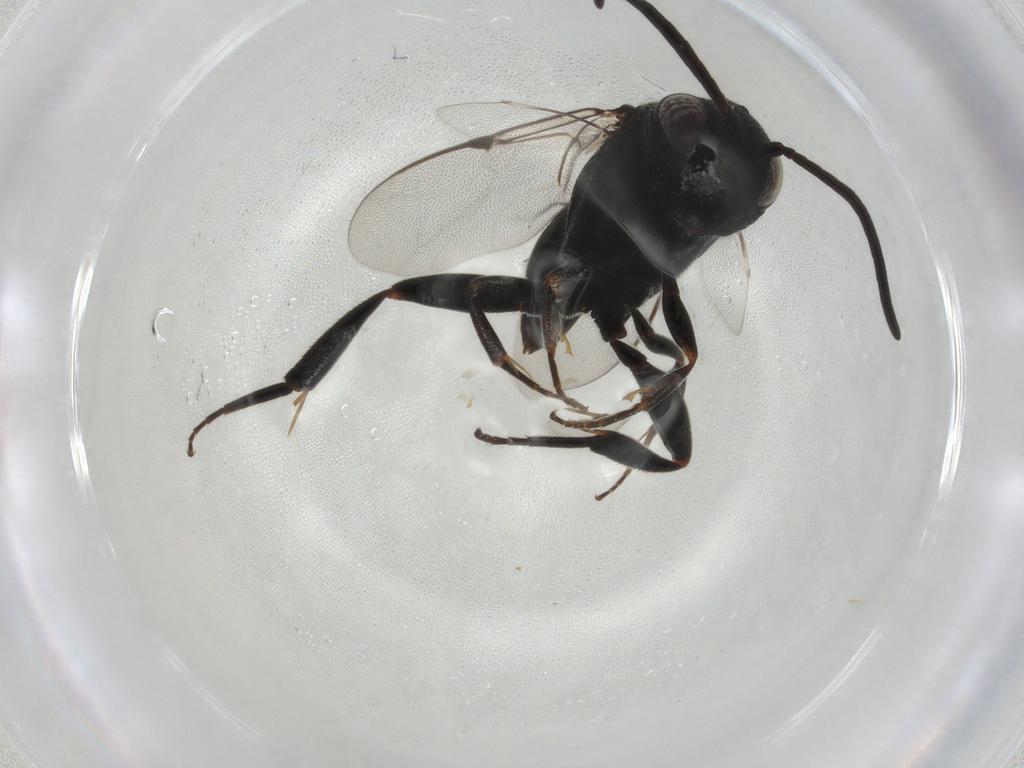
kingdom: Animalia
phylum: Arthropoda
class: Insecta
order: Hymenoptera
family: Evaniidae
